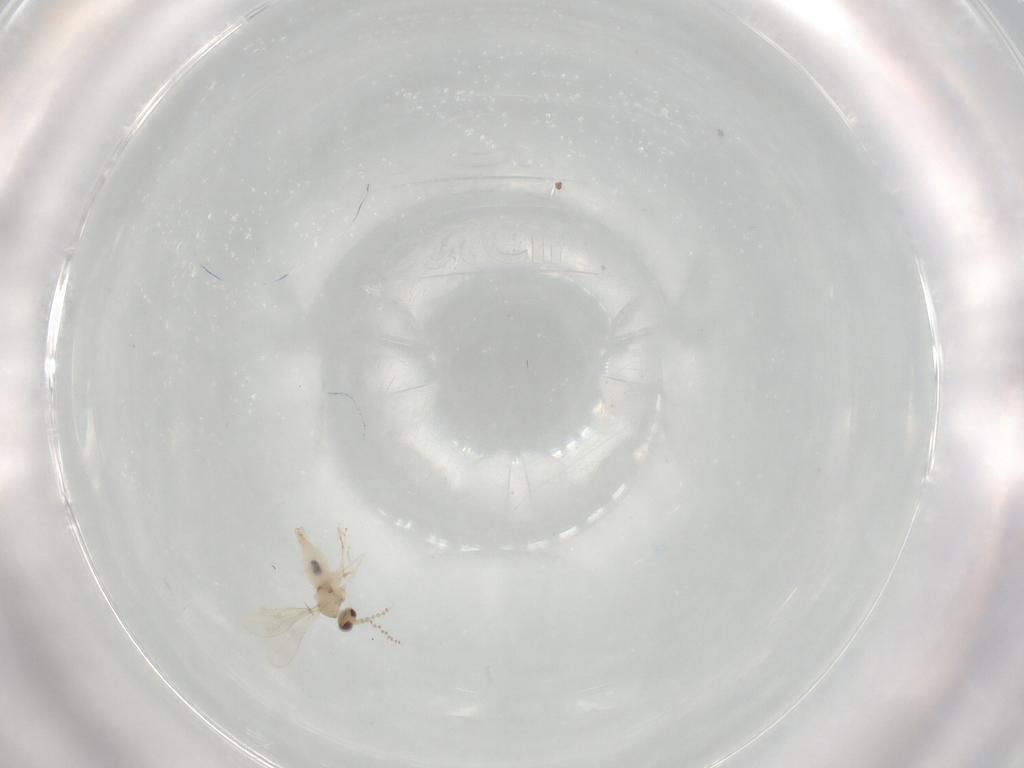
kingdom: Animalia
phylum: Arthropoda
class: Insecta
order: Diptera
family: Cecidomyiidae
